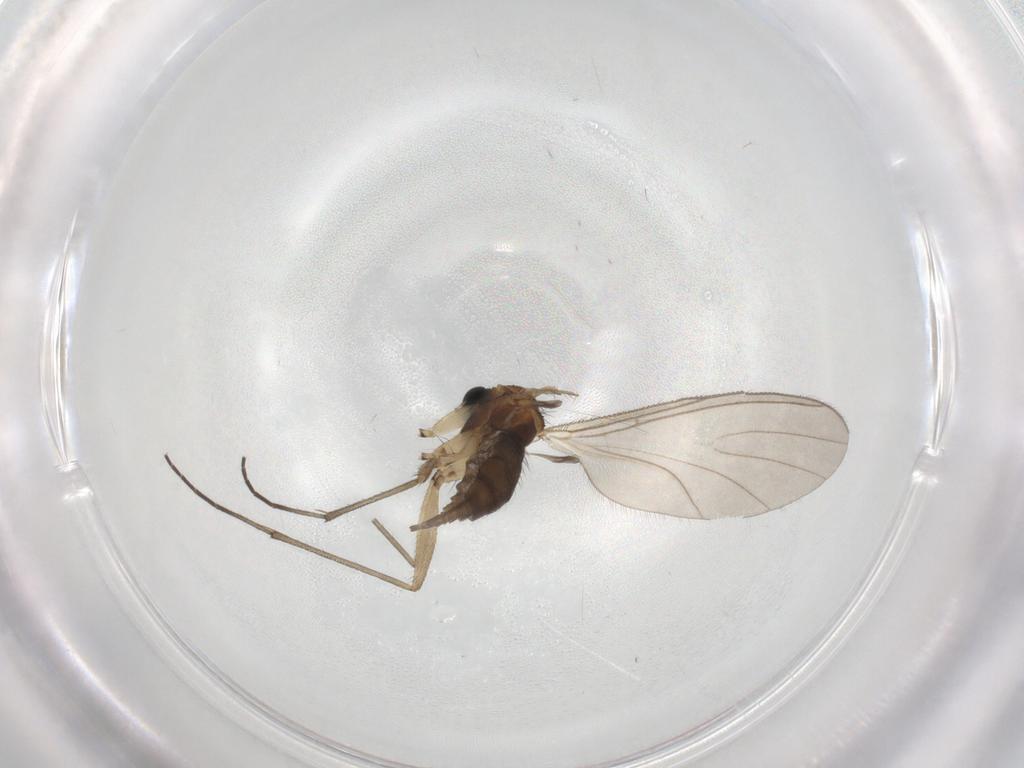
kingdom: Animalia
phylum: Arthropoda
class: Insecta
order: Diptera
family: Sciaridae
